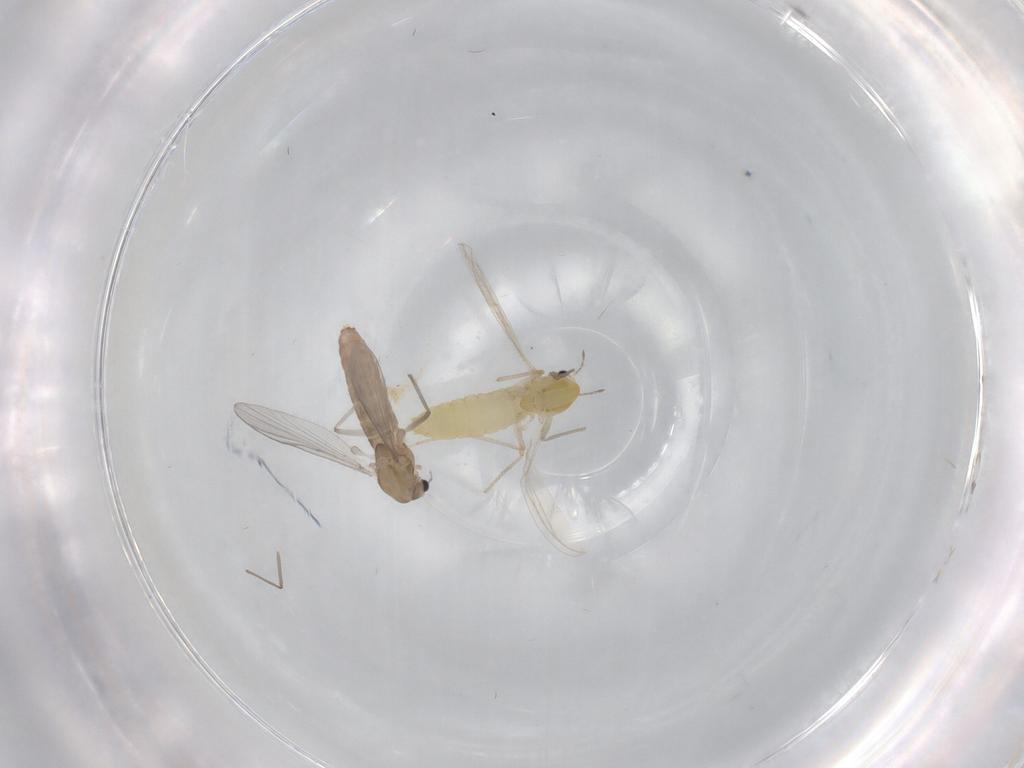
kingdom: Animalia
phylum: Arthropoda
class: Insecta
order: Diptera
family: Chironomidae
